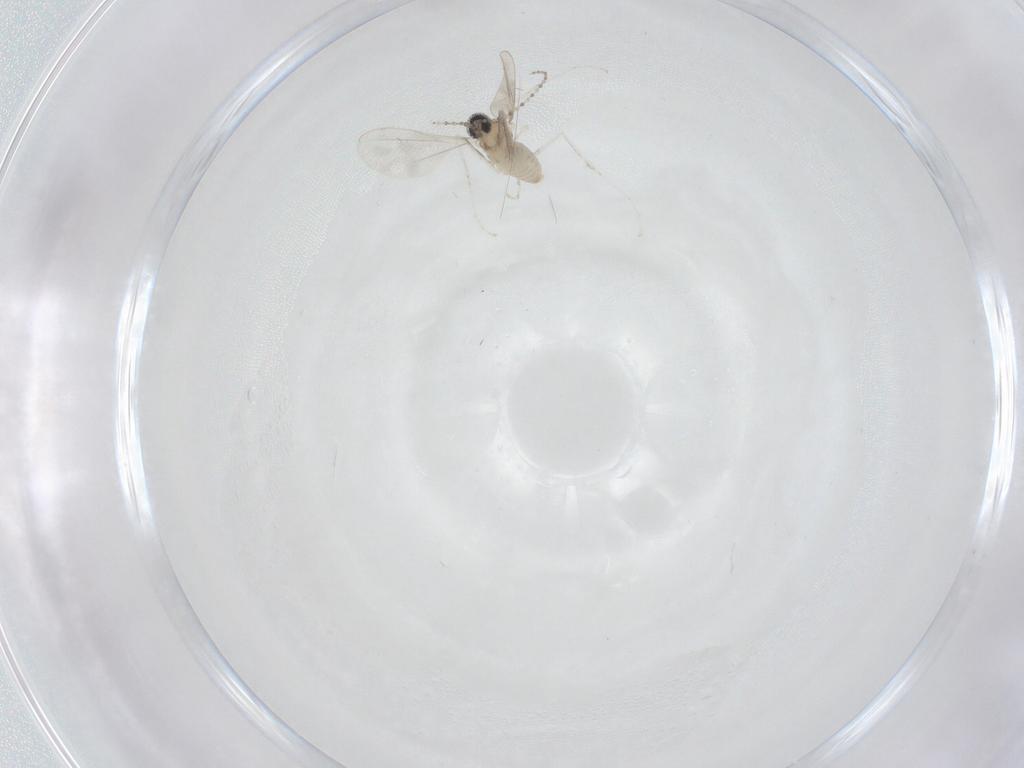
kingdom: Animalia
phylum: Arthropoda
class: Insecta
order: Diptera
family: Cecidomyiidae
